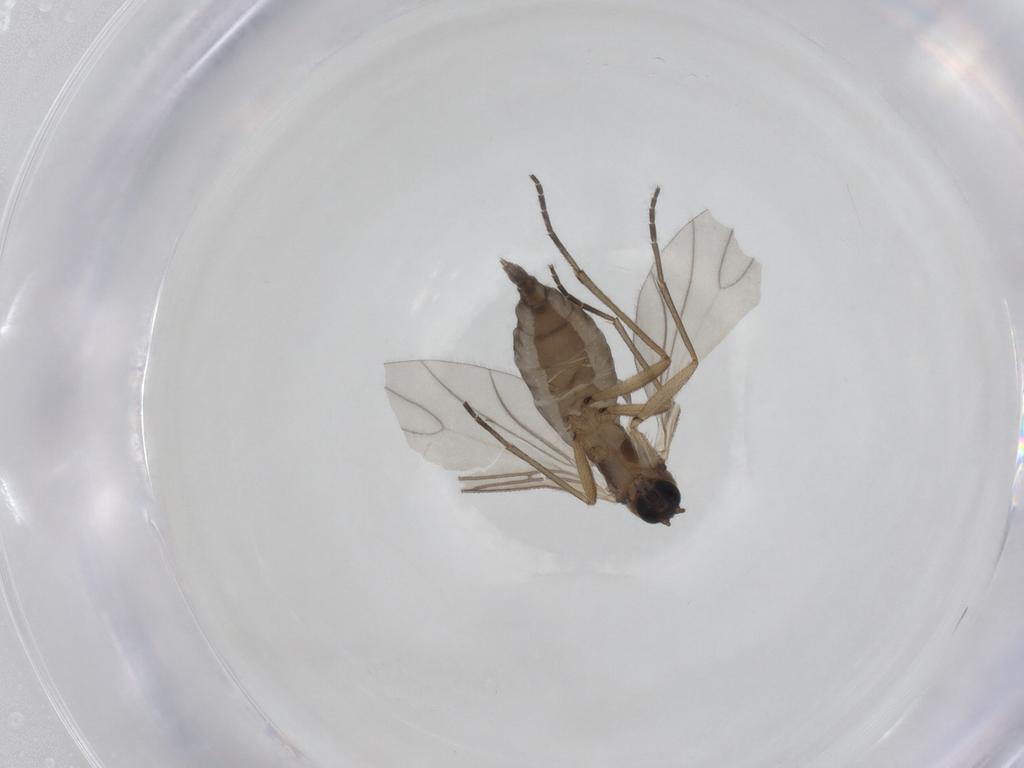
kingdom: Animalia
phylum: Arthropoda
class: Insecta
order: Diptera
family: Sciaridae
